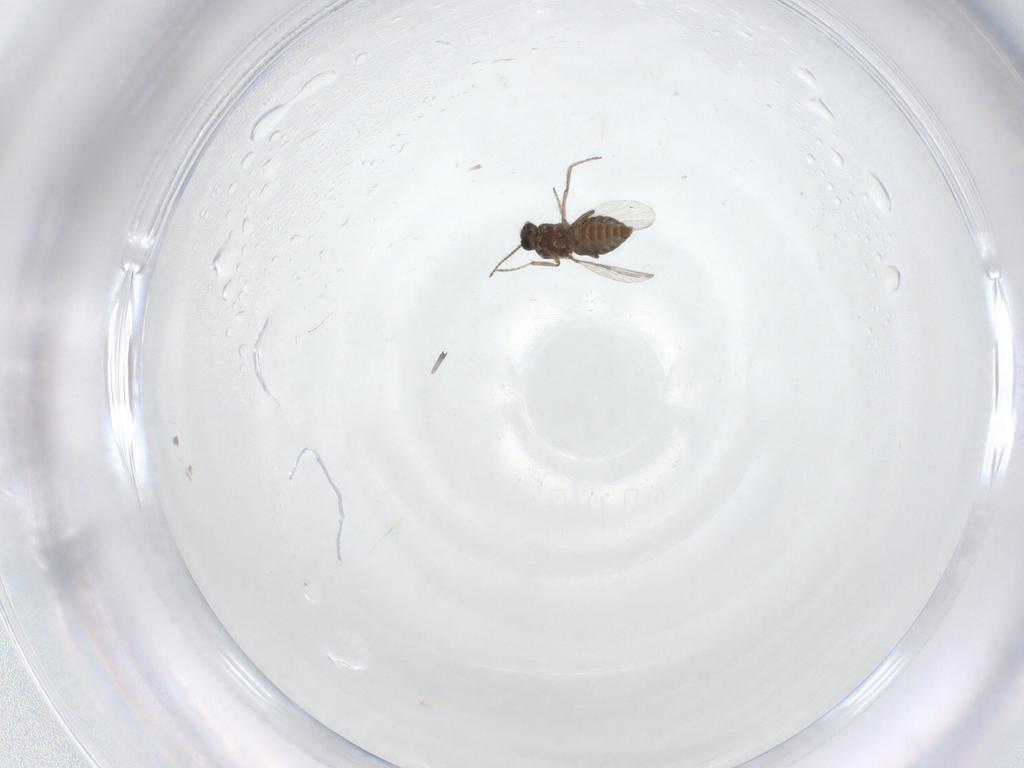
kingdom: Animalia
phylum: Arthropoda
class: Insecta
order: Diptera
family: Ceratopogonidae
